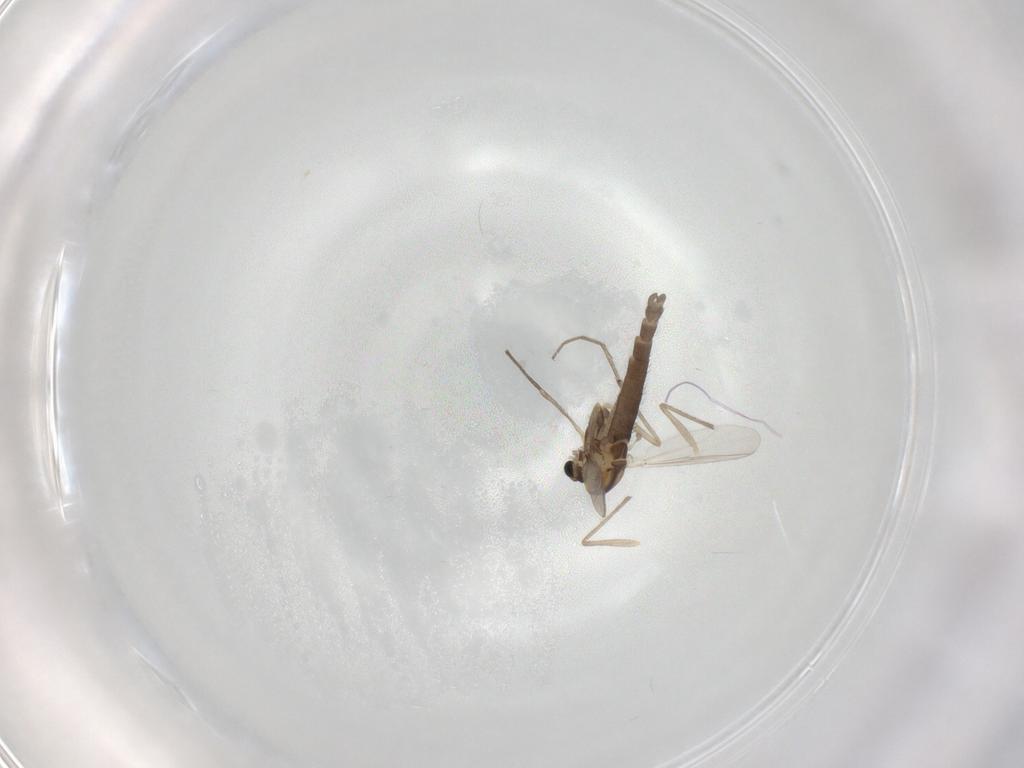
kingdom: Animalia
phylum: Arthropoda
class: Insecta
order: Diptera
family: Chironomidae
